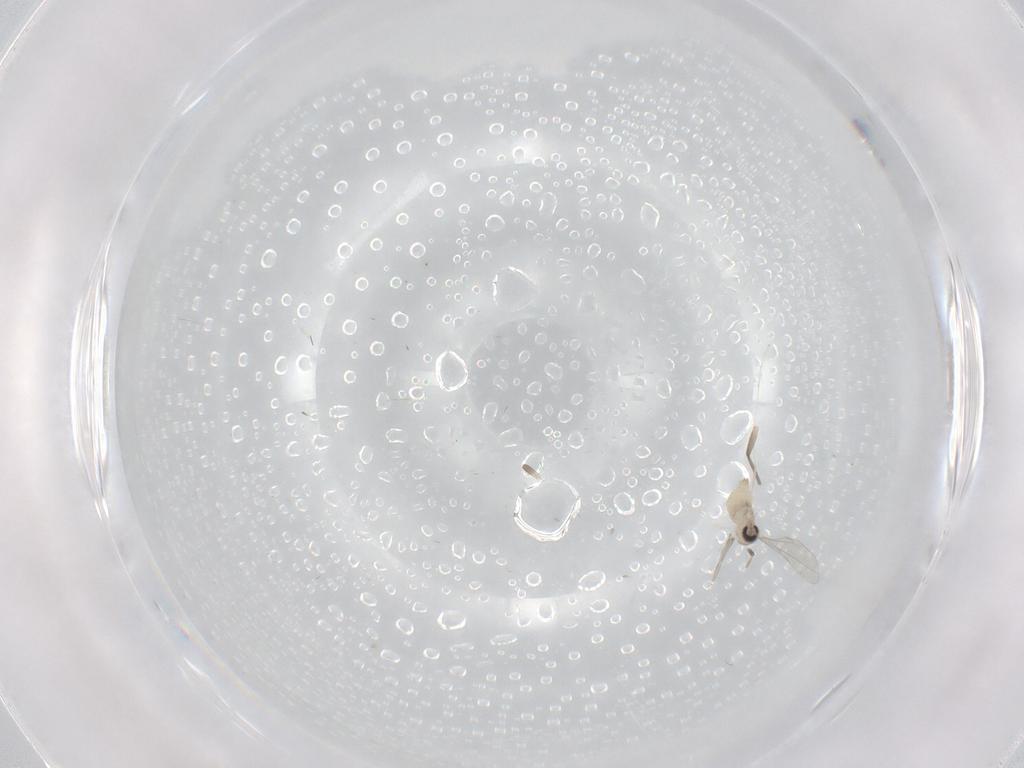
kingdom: Animalia
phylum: Arthropoda
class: Insecta
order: Diptera
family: Cecidomyiidae
